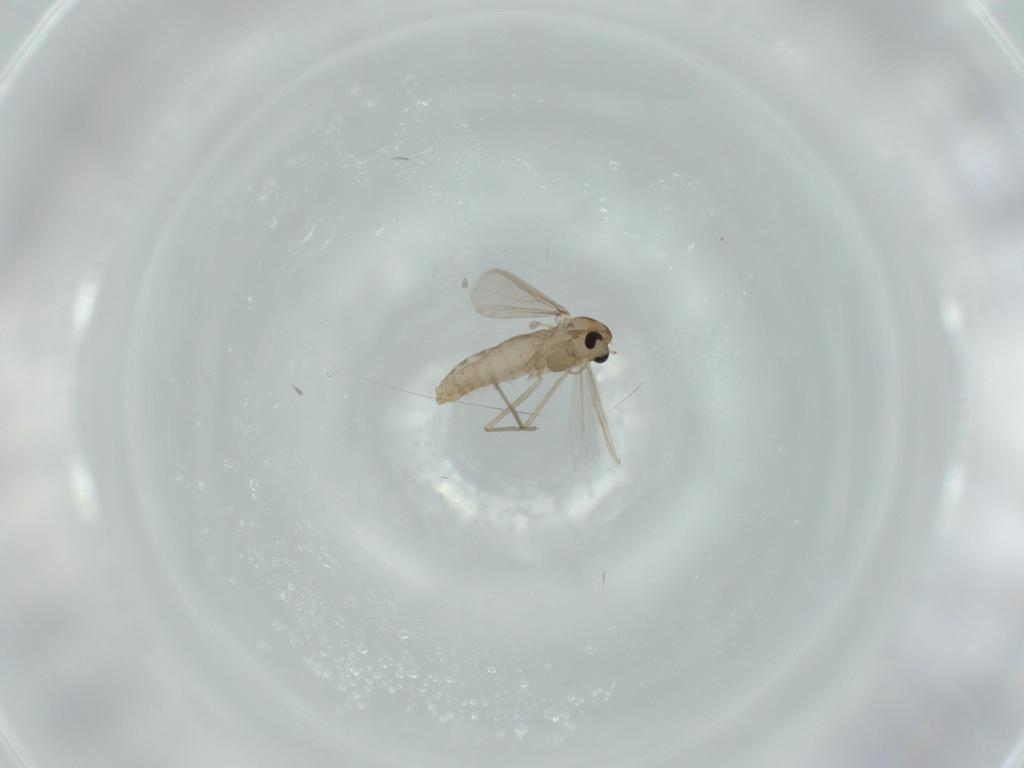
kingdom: Animalia
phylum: Arthropoda
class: Insecta
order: Diptera
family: Chironomidae
